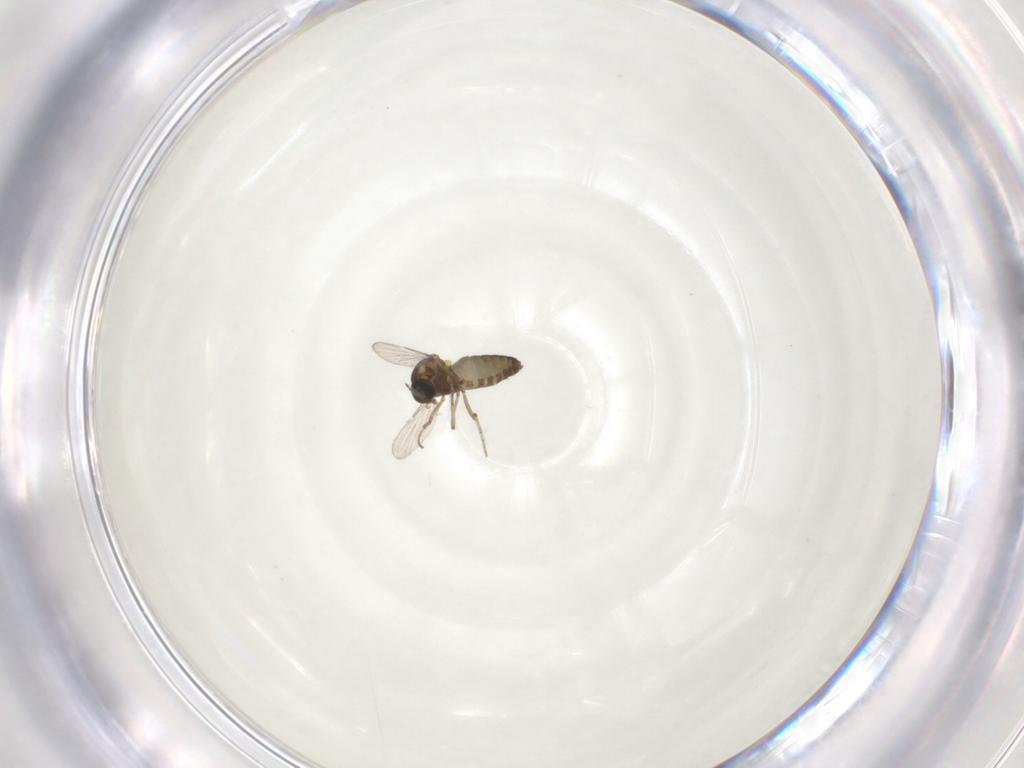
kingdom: Animalia
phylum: Arthropoda
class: Insecta
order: Diptera
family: Ceratopogonidae
